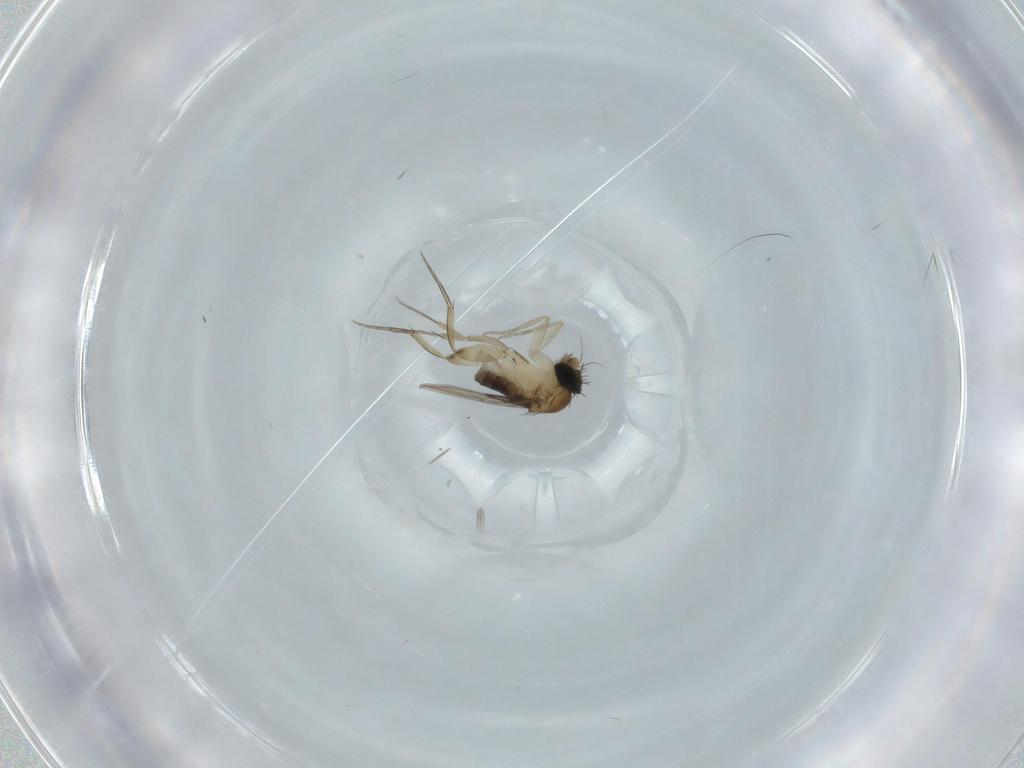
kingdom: Animalia
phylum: Arthropoda
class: Insecta
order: Diptera
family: Phoridae
